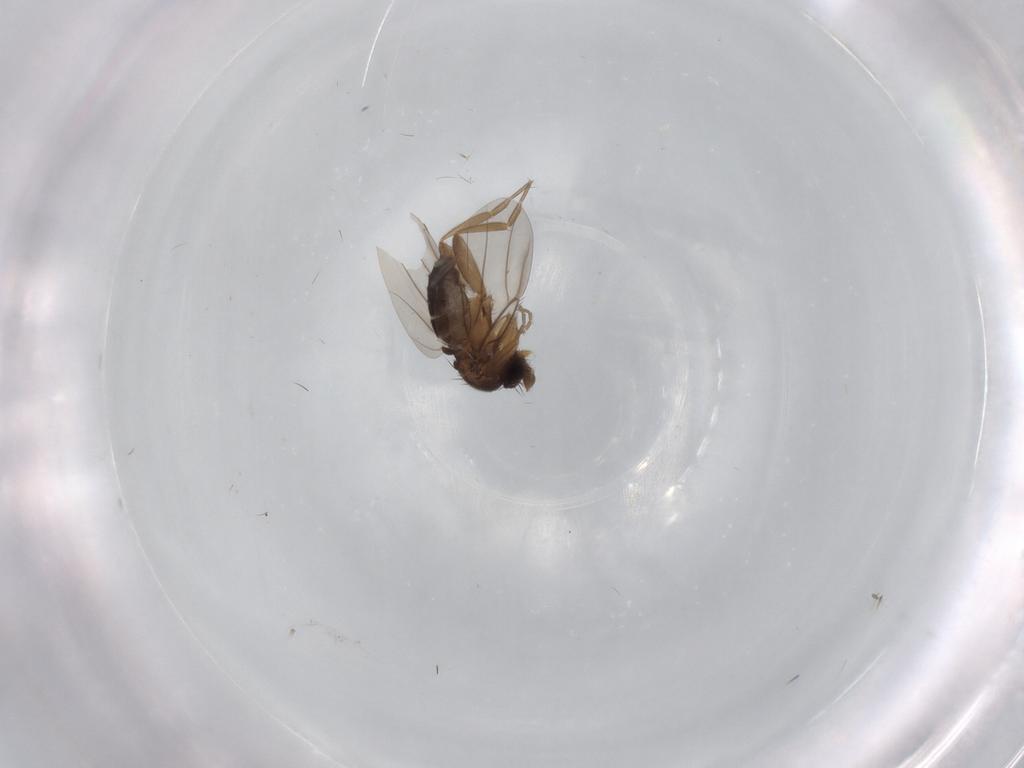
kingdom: Animalia
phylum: Arthropoda
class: Insecta
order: Diptera
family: Phoridae
